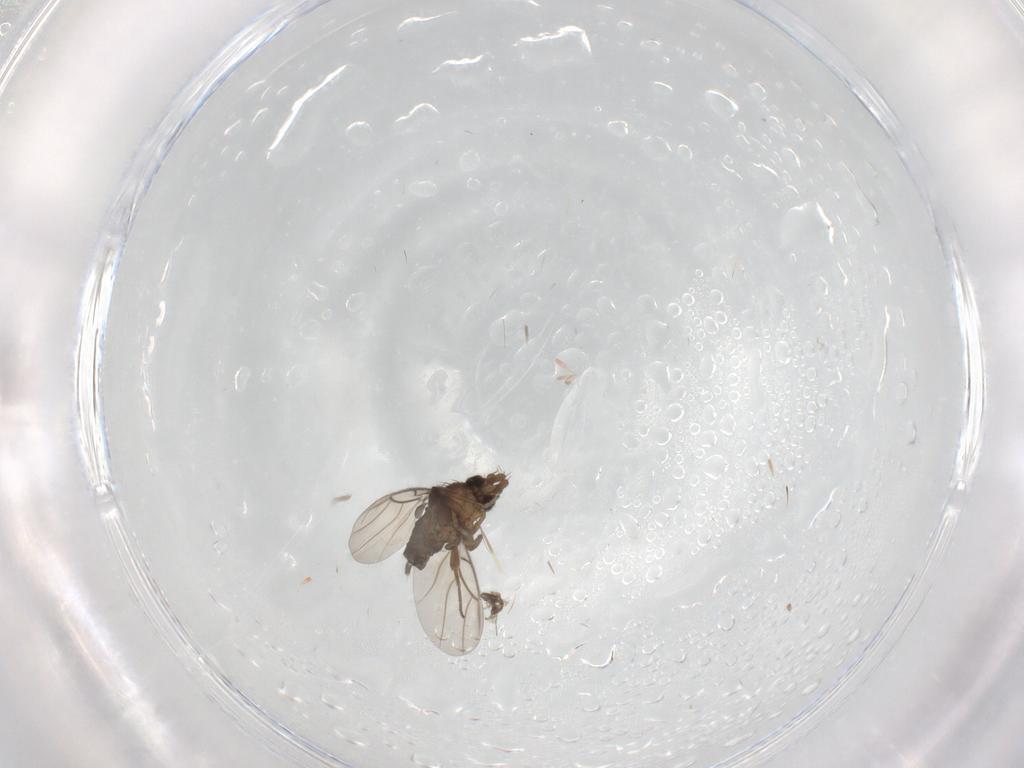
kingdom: Animalia
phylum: Arthropoda
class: Insecta
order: Diptera
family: Phoridae
